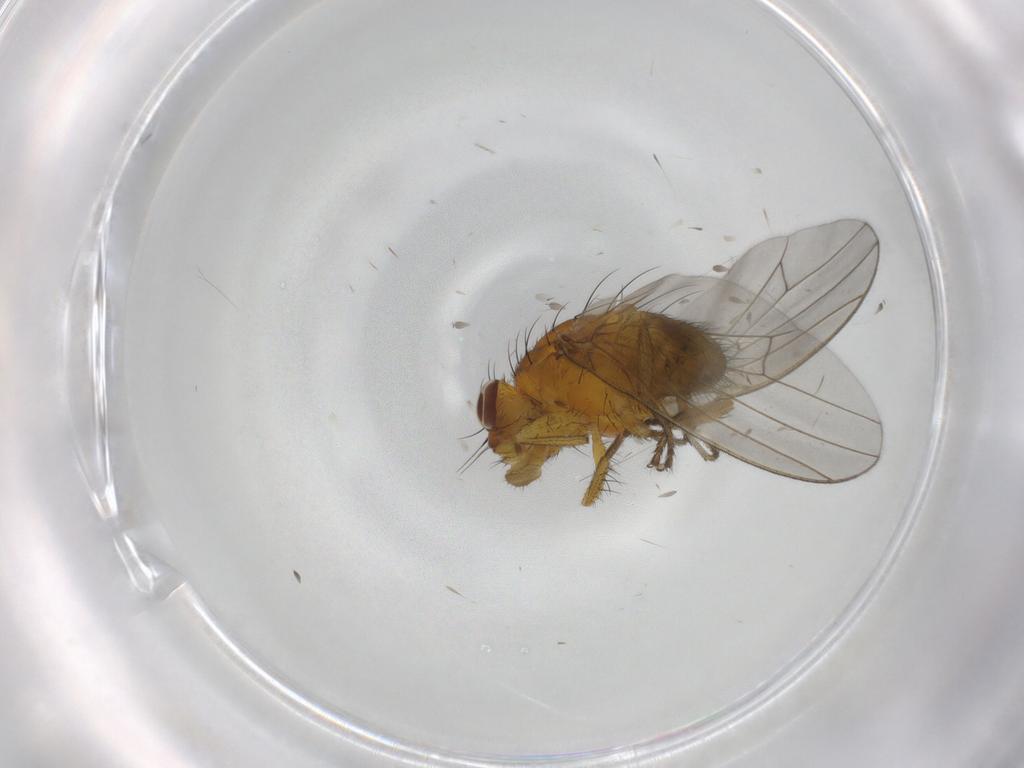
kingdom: Animalia
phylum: Arthropoda
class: Insecta
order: Diptera
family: Lauxaniidae
